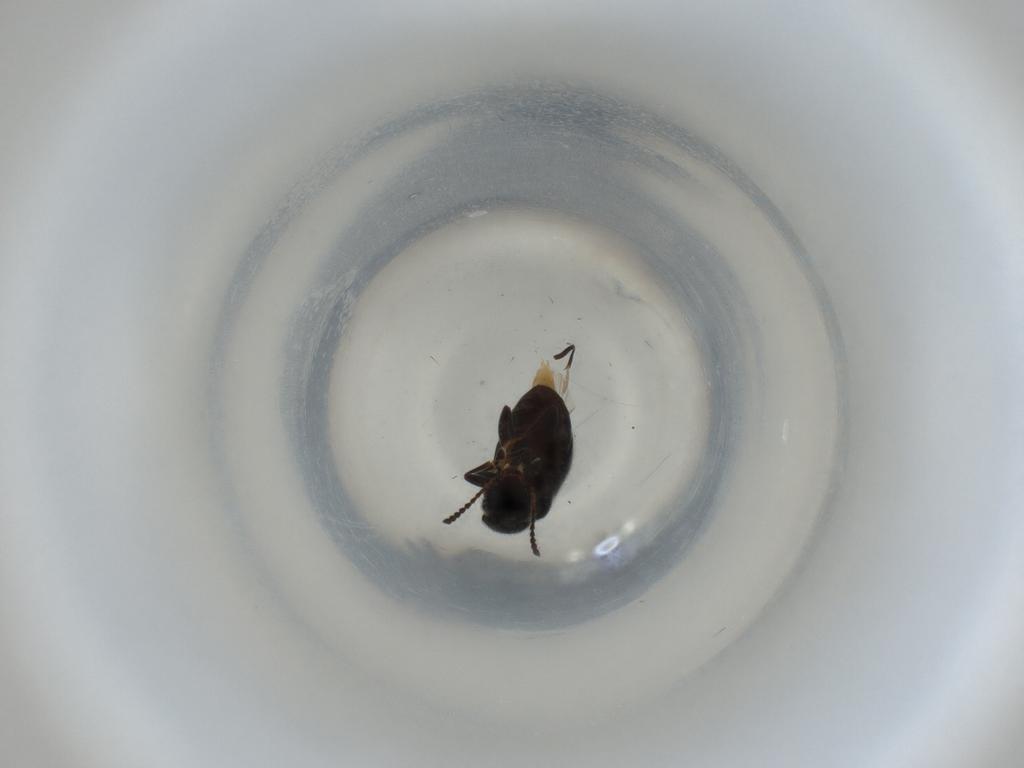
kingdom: Animalia
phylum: Arthropoda
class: Insecta
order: Coleoptera
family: Anthicidae
